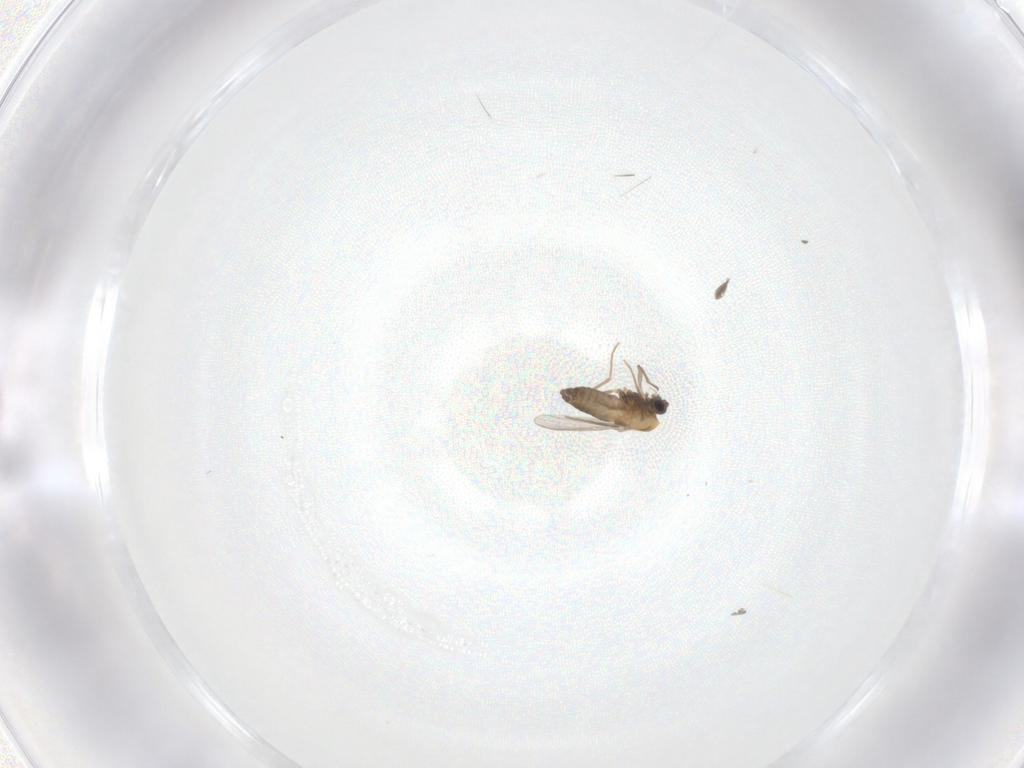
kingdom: Animalia
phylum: Arthropoda
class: Insecta
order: Diptera
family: Chironomidae
